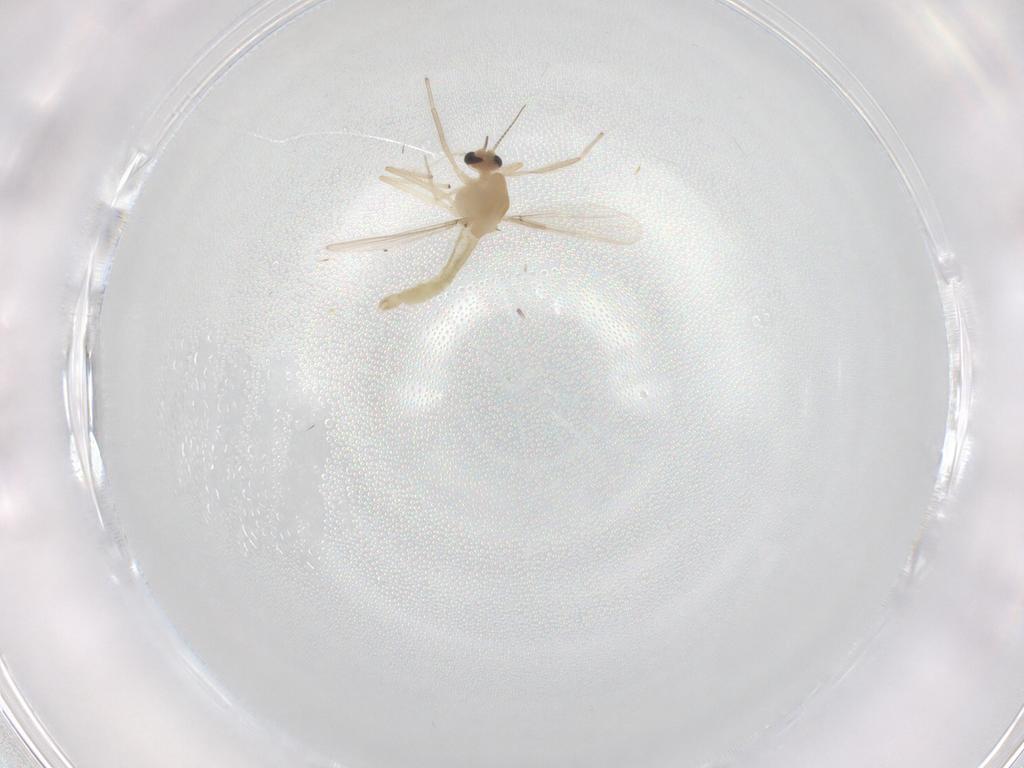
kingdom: Animalia
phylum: Arthropoda
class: Insecta
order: Diptera
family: Chironomidae
